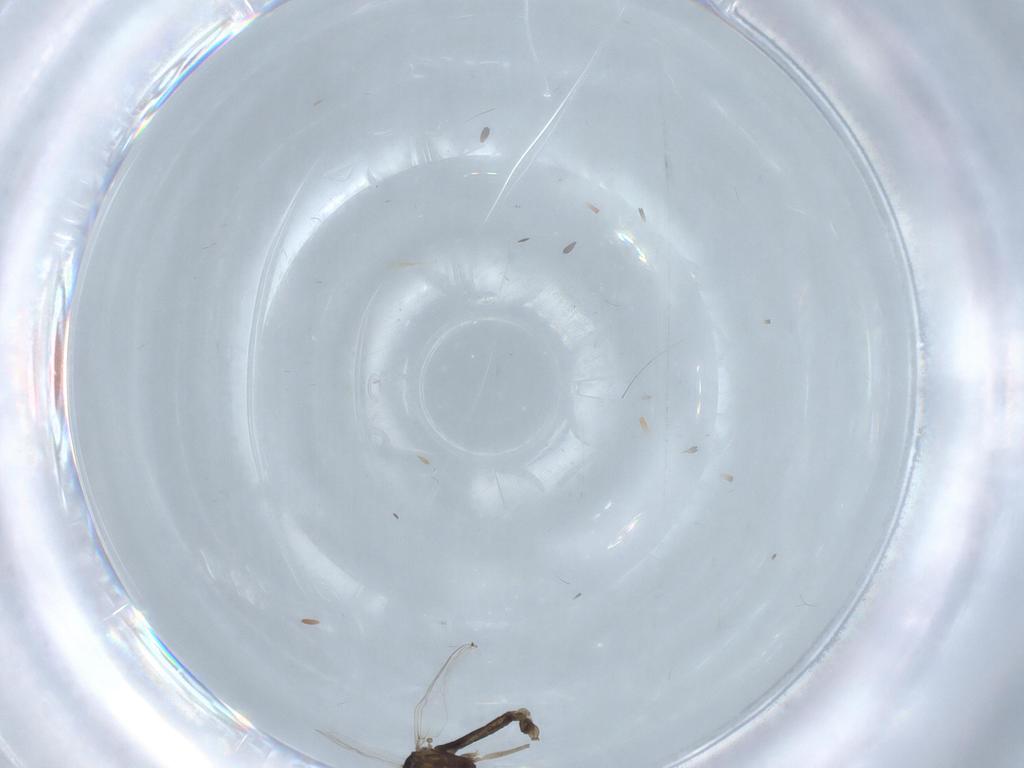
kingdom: Animalia
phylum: Arthropoda
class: Insecta
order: Diptera
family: Chironomidae
